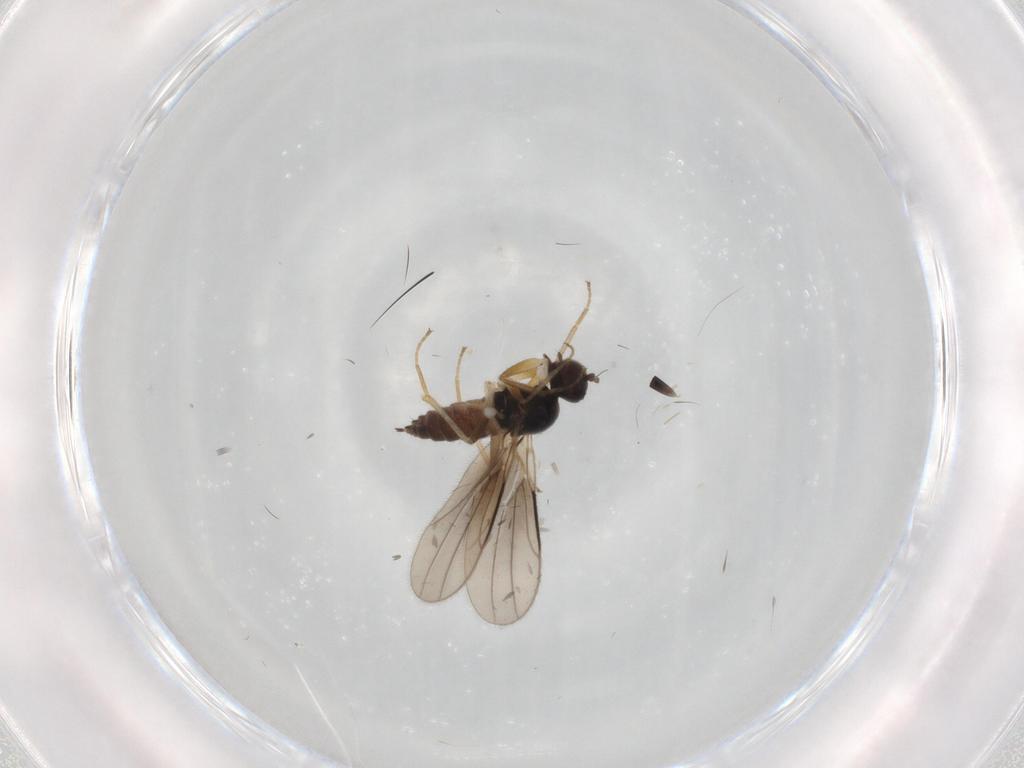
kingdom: Animalia
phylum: Arthropoda
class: Insecta
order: Diptera
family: Hybotidae
